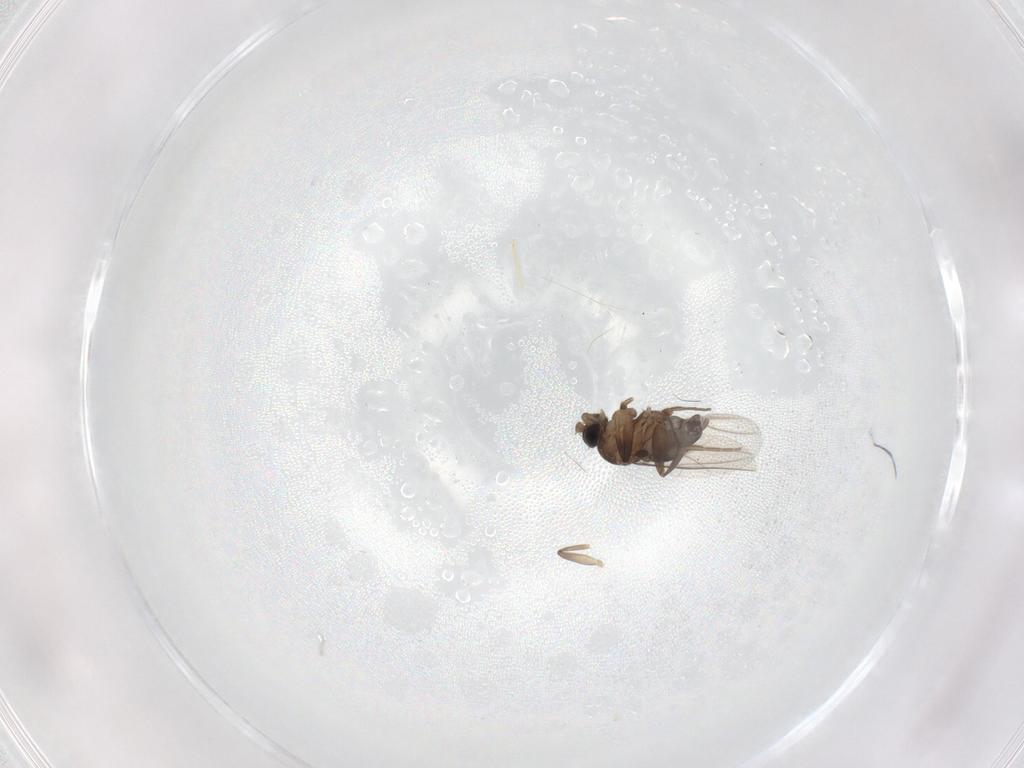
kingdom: Animalia
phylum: Arthropoda
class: Insecta
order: Diptera
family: Phoridae
